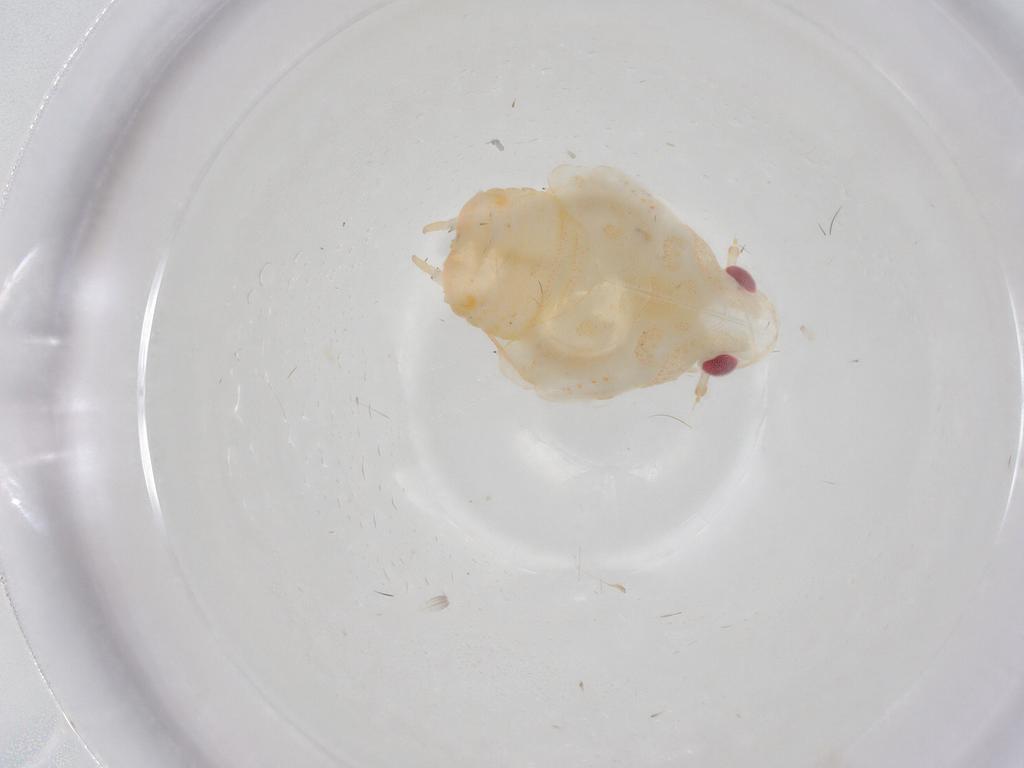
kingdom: Animalia
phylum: Arthropoda
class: Insecta
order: Hemiptera
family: Fulgoroidea_incertae_sedis
